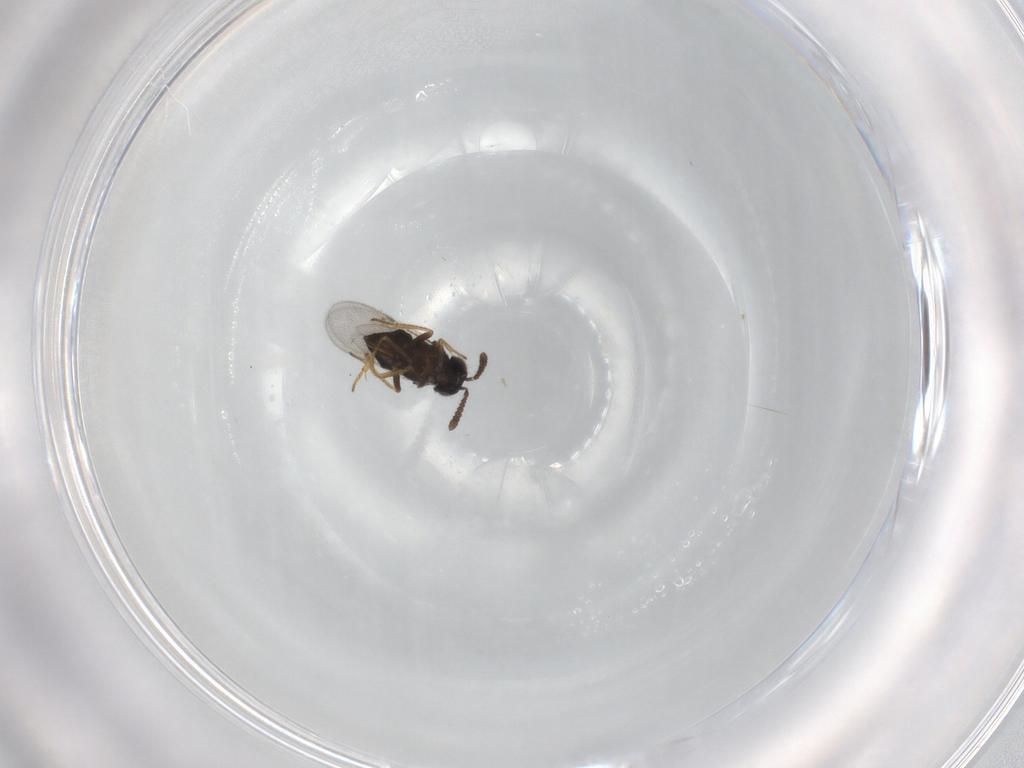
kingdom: Animalia
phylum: Arthropoda
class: Insecta
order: Hymenoptera
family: Encyrtidae
